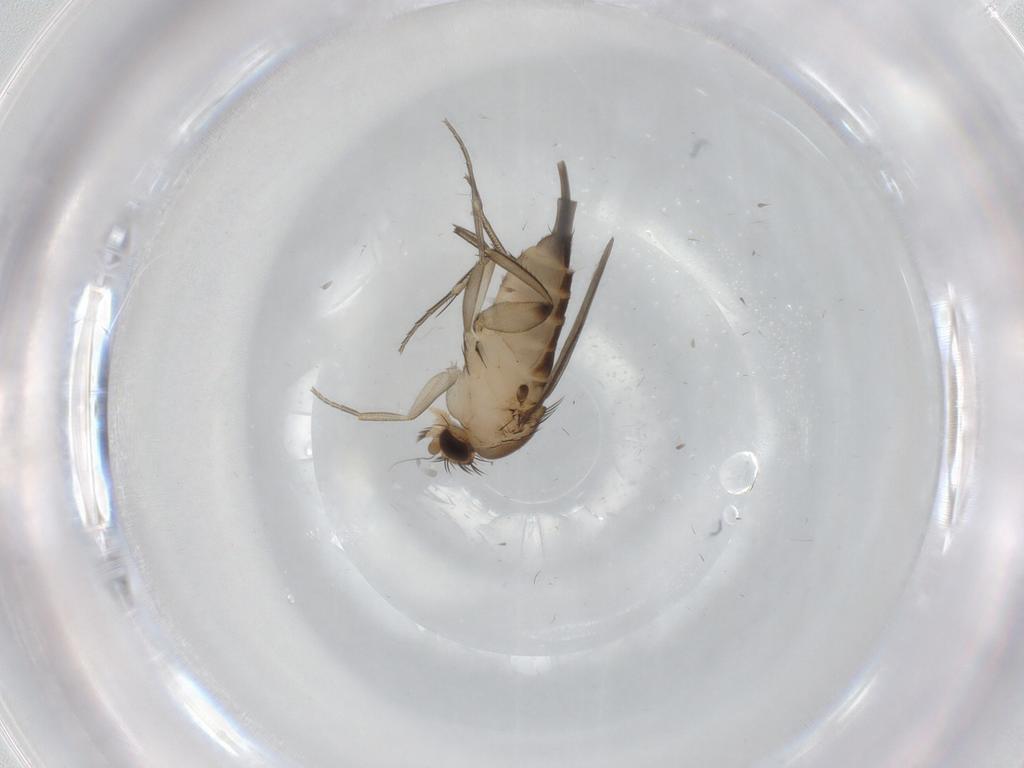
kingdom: Animalia
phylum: Arthropoda
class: Insecta
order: Diptera
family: Phoridae
